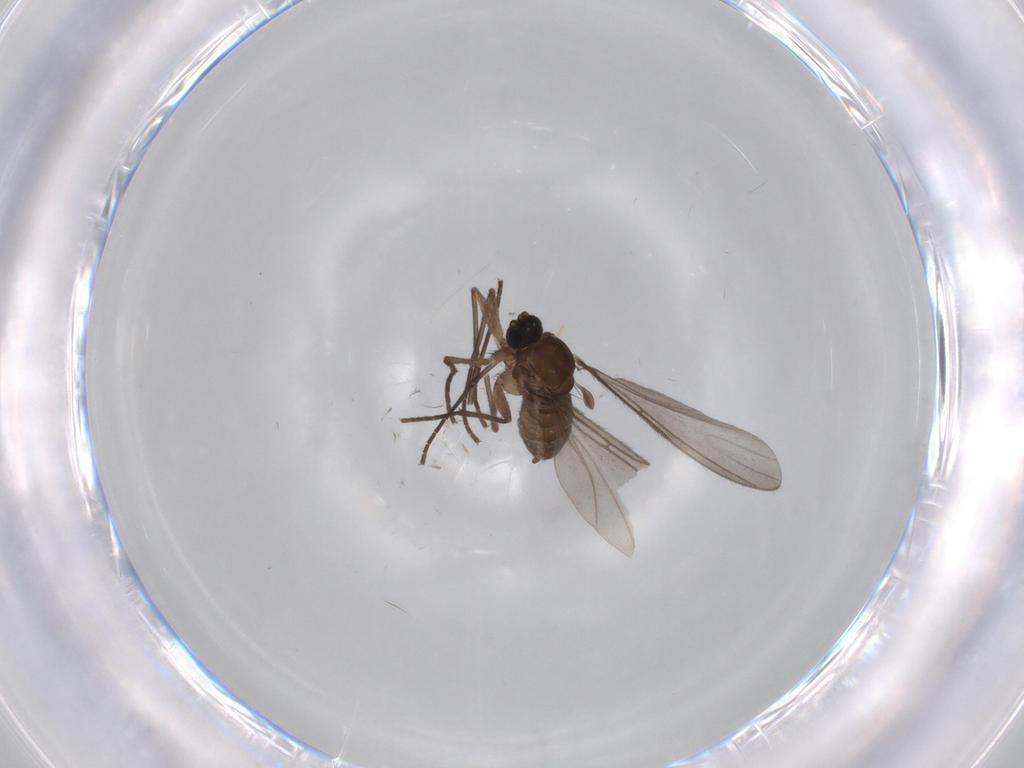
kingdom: Animalia
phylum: Arthropoda
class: Insecta
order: Diptera
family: Sciaridae
